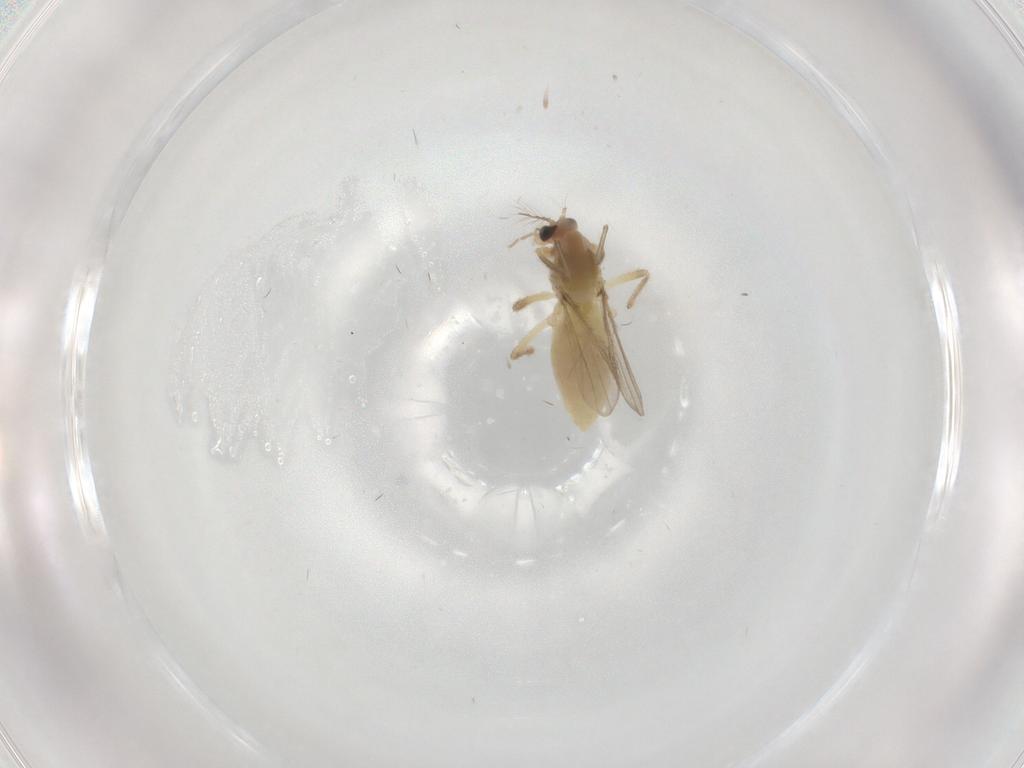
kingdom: Animalia
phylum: Arthropoda
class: Insecta
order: Diptera
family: Chironomidae
